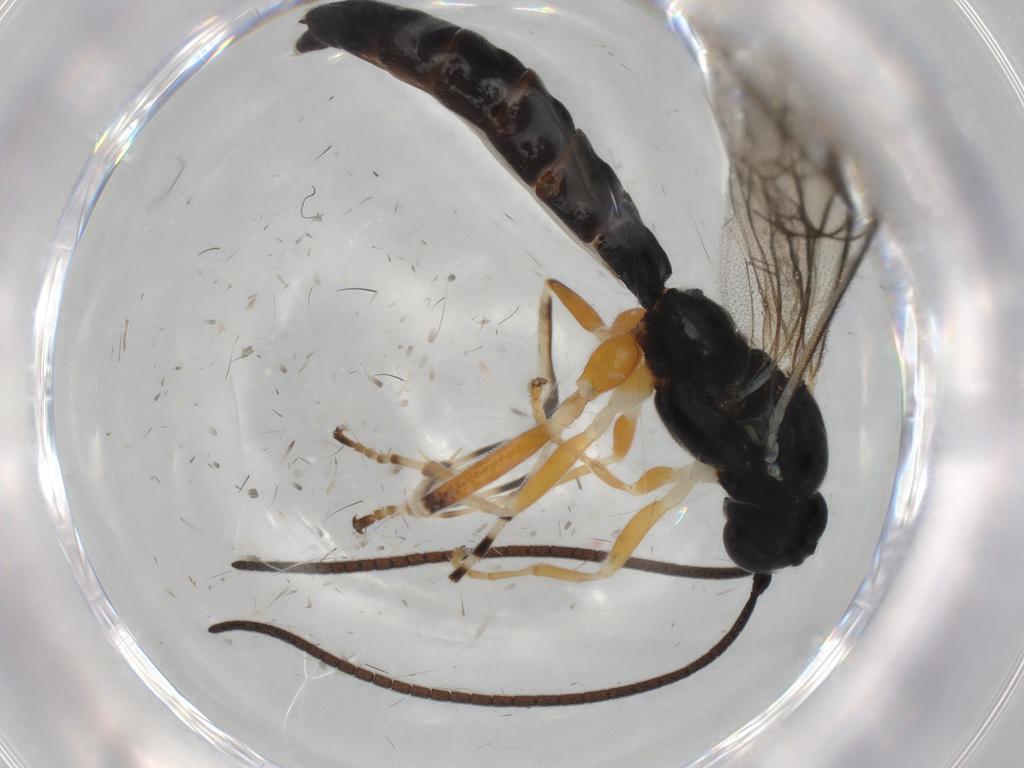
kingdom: Animalia
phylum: Arthropoda
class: Insecta
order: Hymenoptera
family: Ichneumonidae
